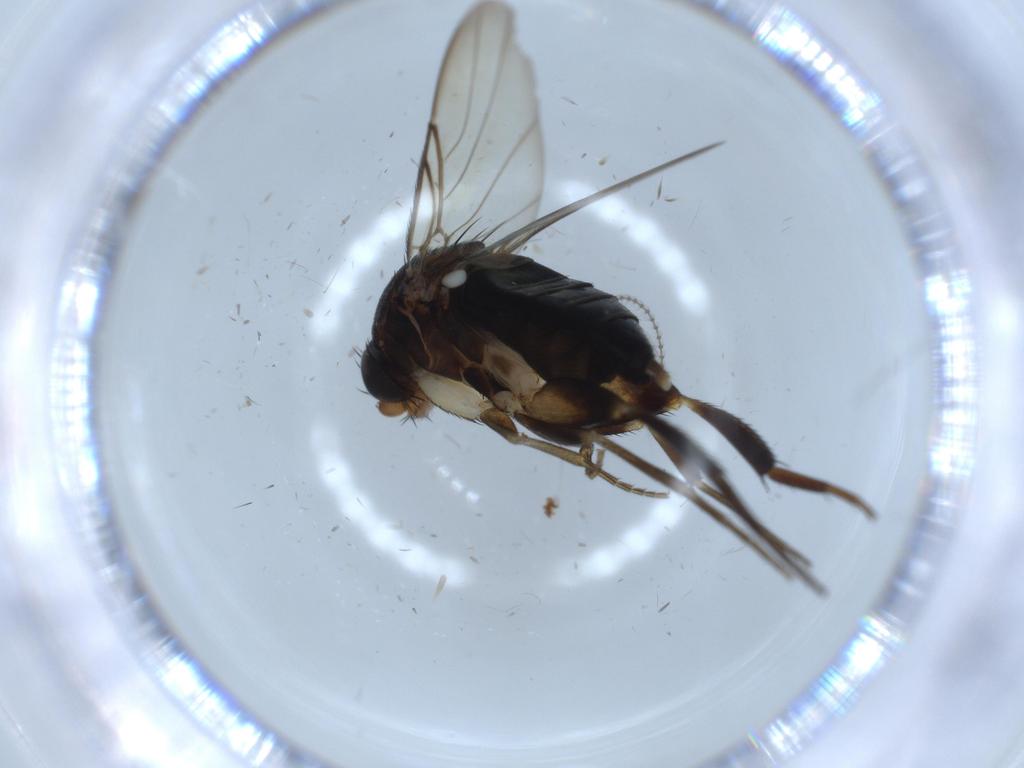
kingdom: Animalia
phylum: Arthropoda
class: Insecta
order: Diptera
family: Phoridae
